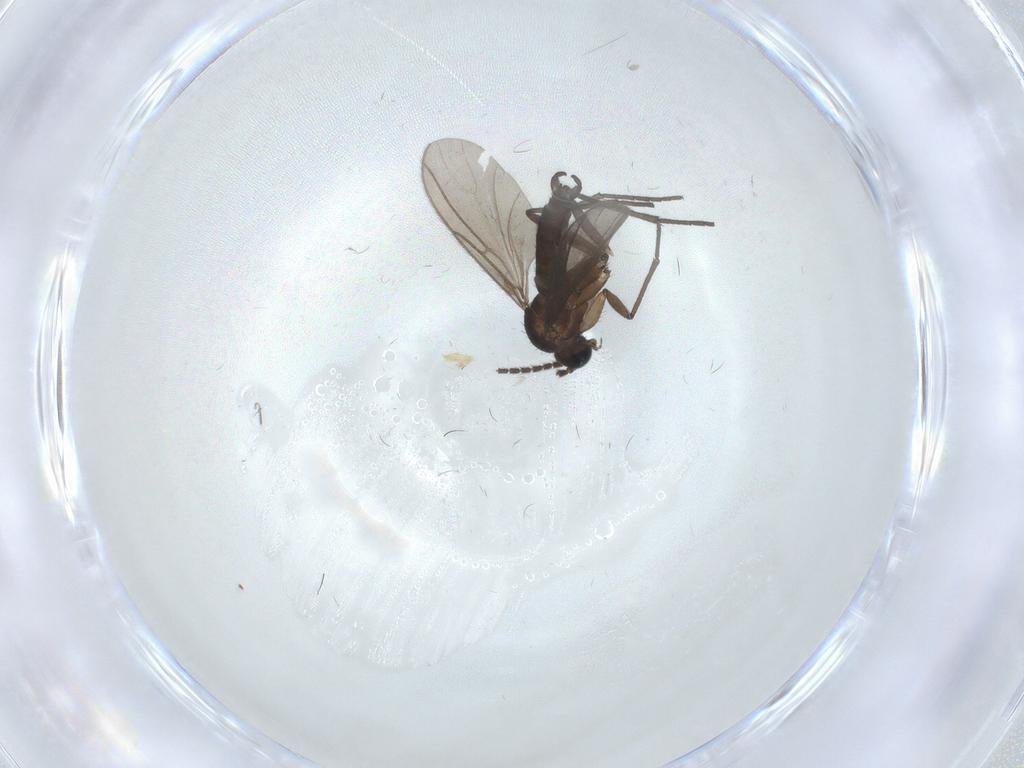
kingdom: Animalia
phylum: Arthropoda
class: Insecta
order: Diptera
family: Sciaridae
